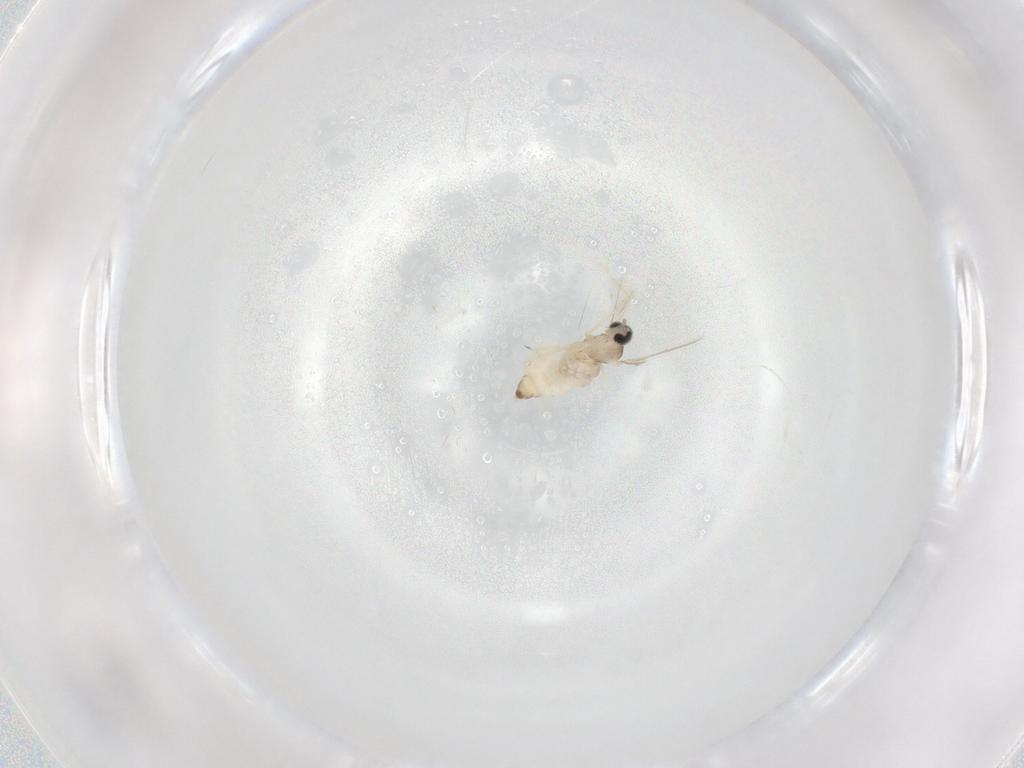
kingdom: Animalia
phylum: Arthropoda
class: Insecta
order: Diptera
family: Cecidomyiidae
